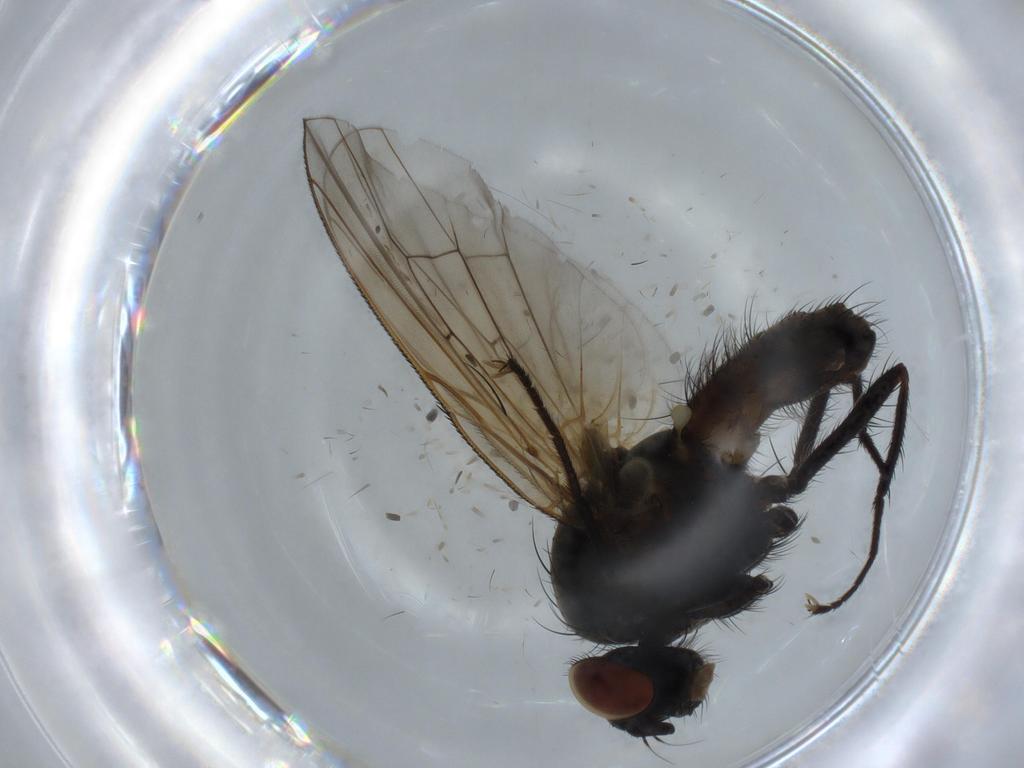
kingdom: Animalia
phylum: Arthropoda
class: Insecta
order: Diptera
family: Anthomyiidae
